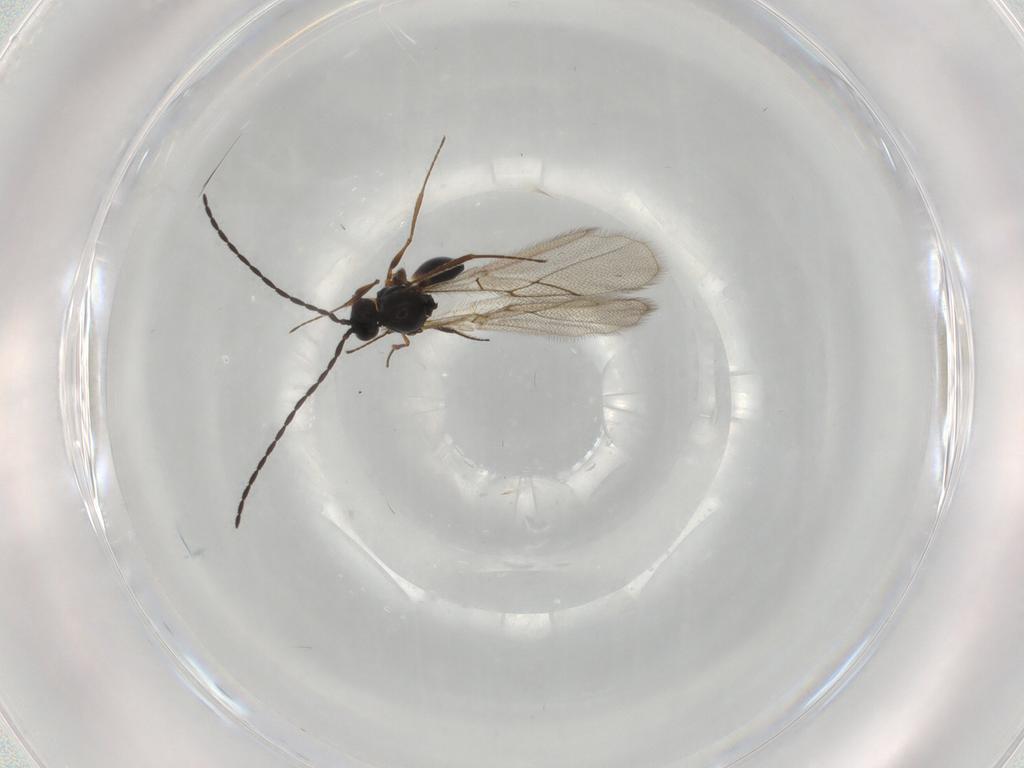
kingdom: Animalia
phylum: Arthropoda
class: Insecta
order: Hymenoptera
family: Figitidae
